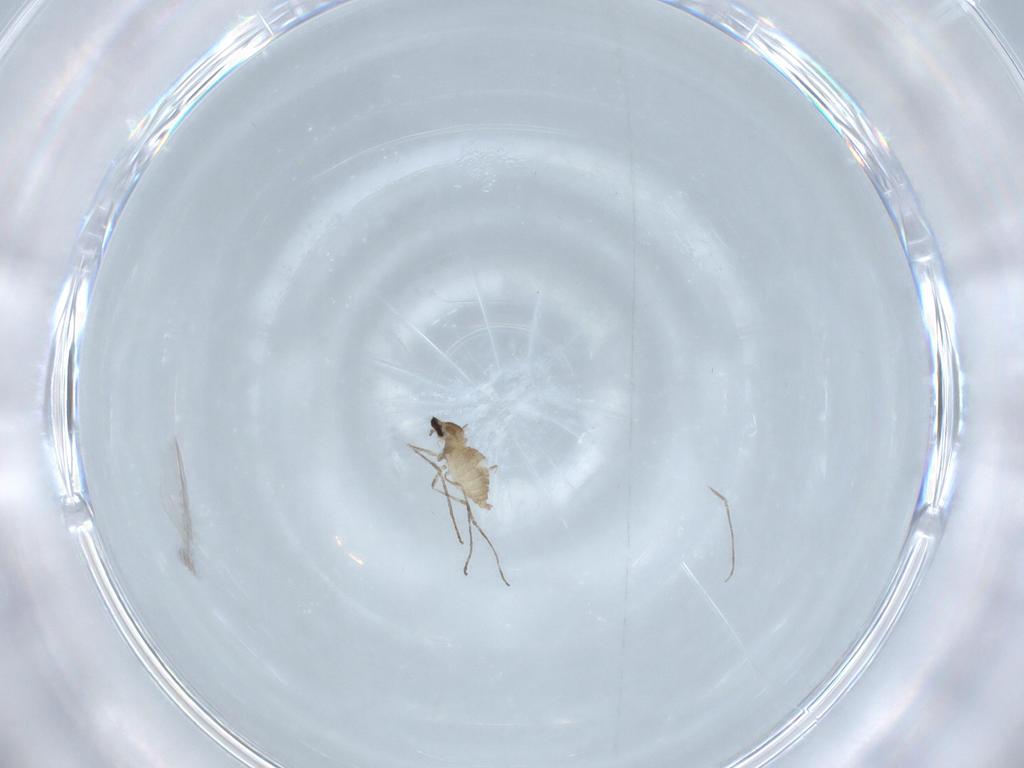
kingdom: Animalia
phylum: Arthropoda
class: Insecta
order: Diptera
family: Cecidomyiidae
